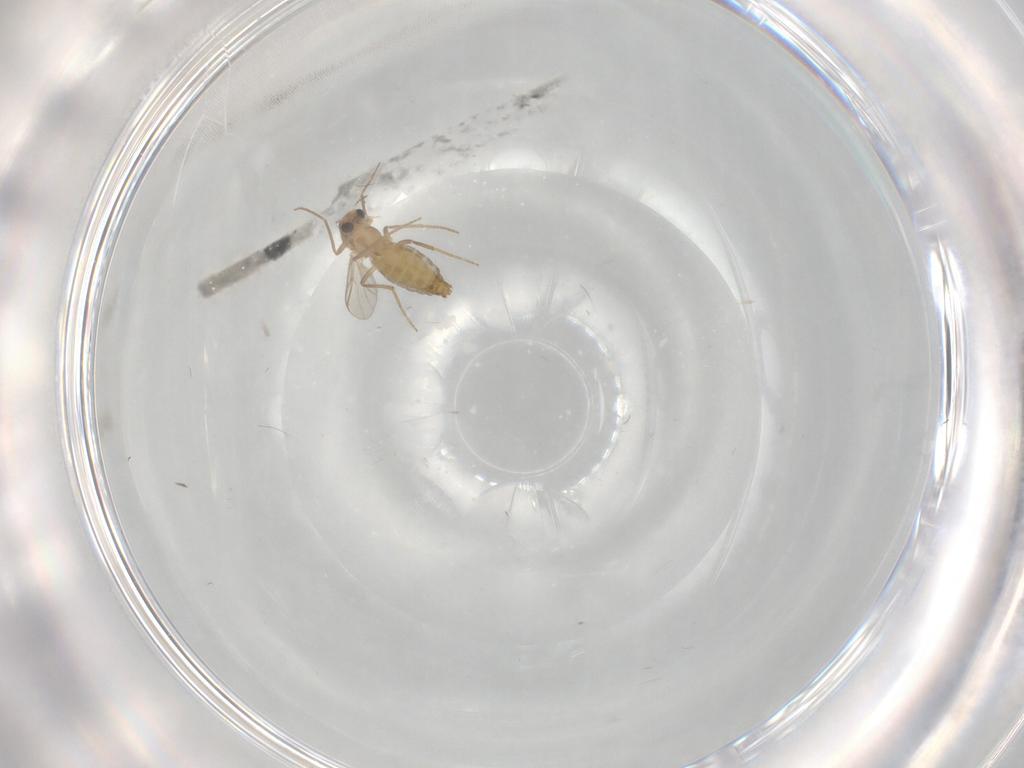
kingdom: Animalia
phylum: Arthropoda
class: Insecta
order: Diptera
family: Chironomidae
